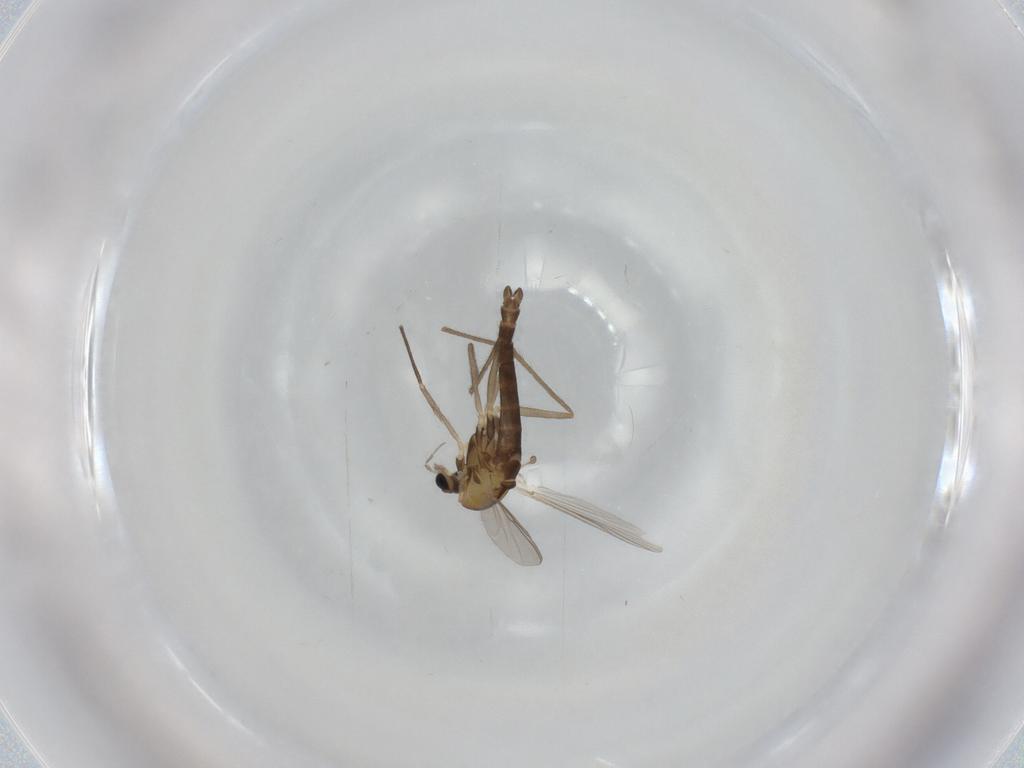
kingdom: Animalia
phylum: Arthropoda
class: Insecta
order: Diptera
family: Chironomidae
